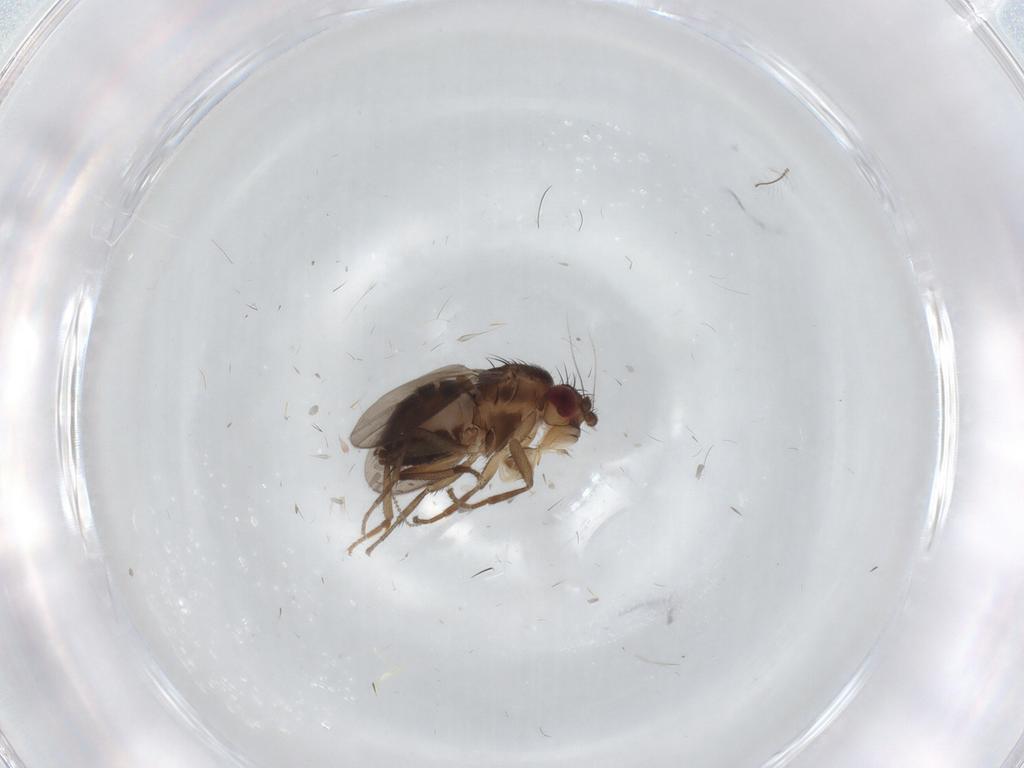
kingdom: Animalia
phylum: Arthropoda
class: Insecta
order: Diptera
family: Sphaeroceridae
